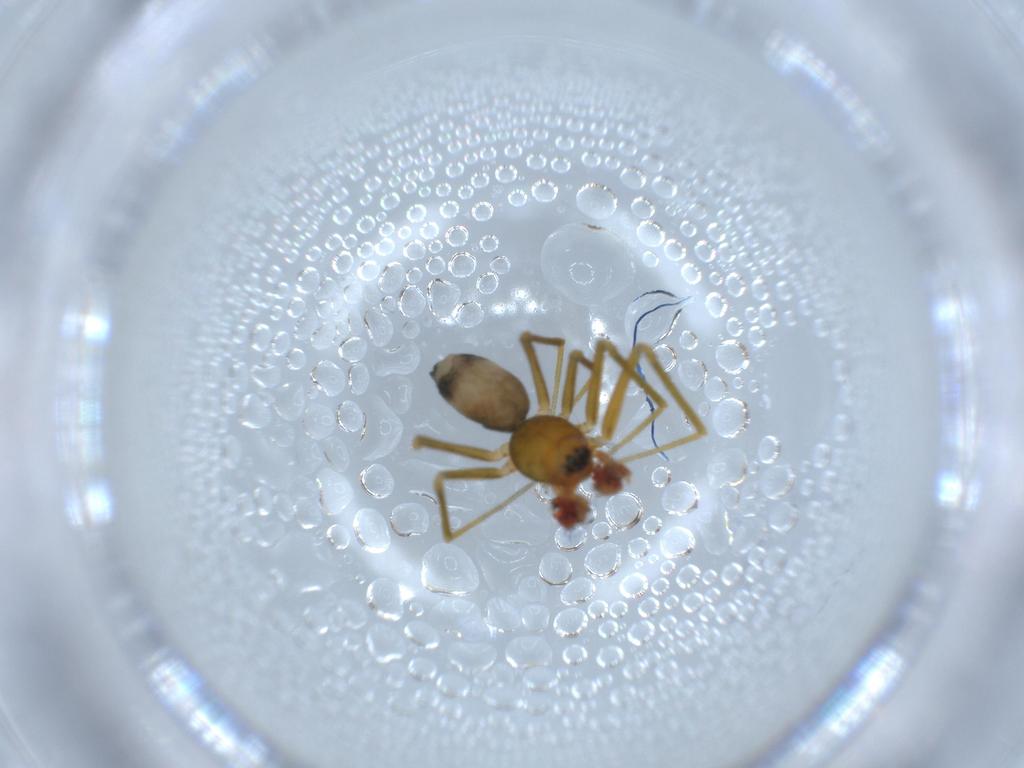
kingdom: Animalia
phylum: Arthropoda
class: Arachnida
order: Araneae
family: Linyphiidae
